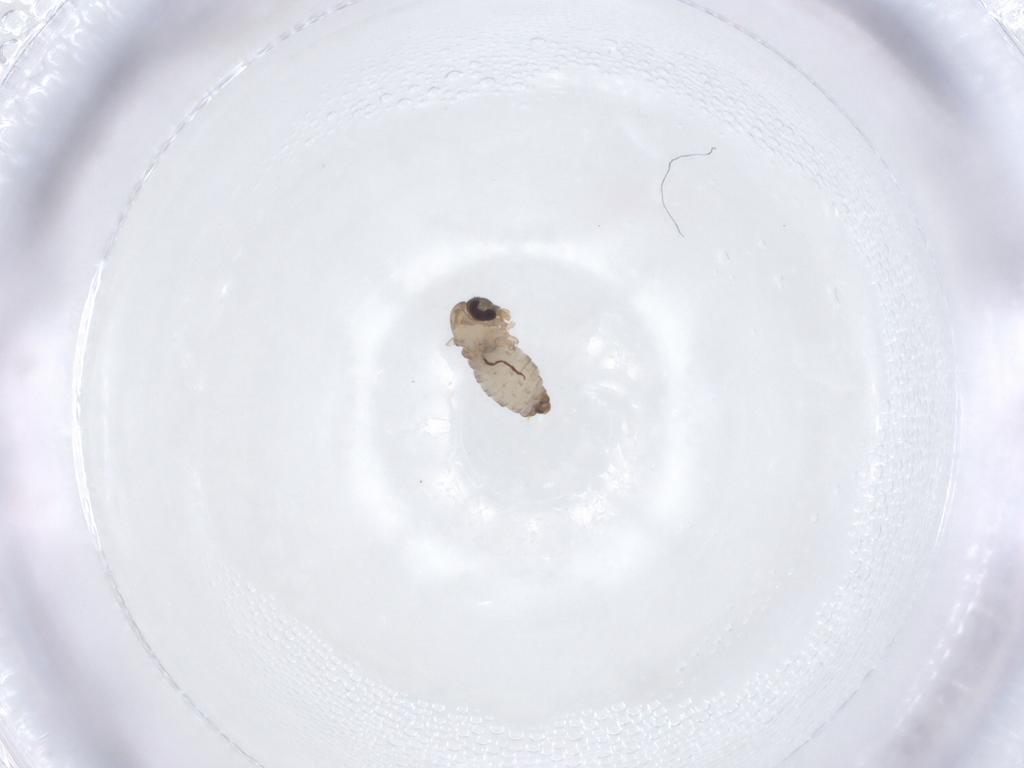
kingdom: Animalia
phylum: Arthropoda
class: Insecta
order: Diptera
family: Psychodidae
